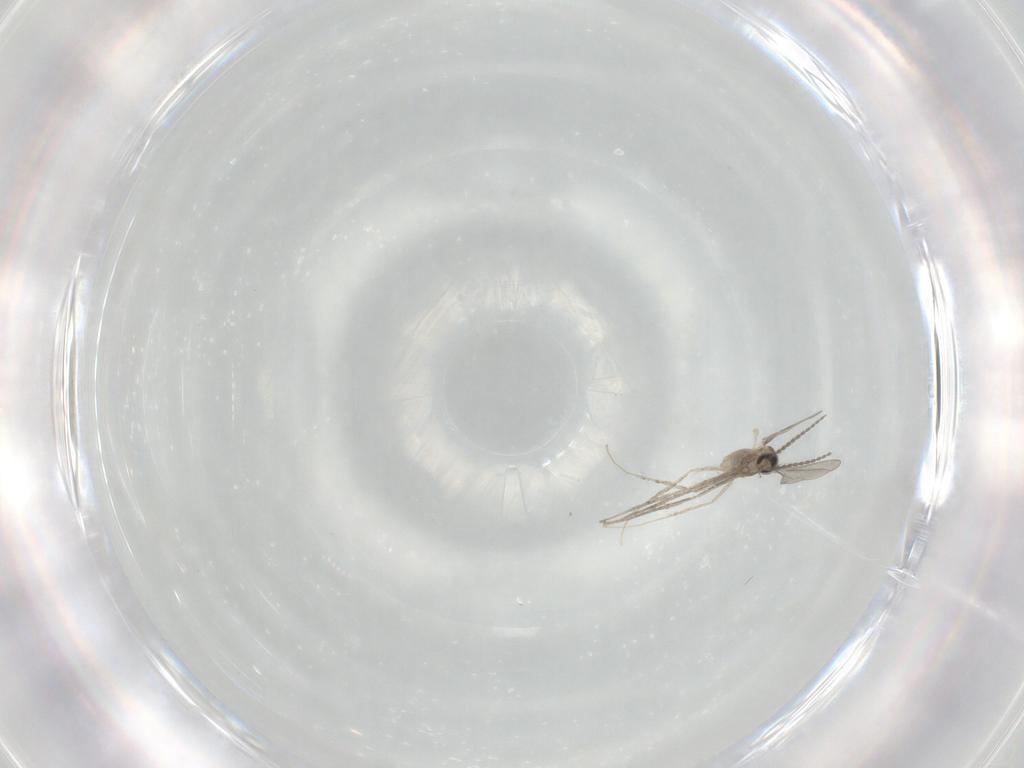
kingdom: Animalia
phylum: Arthropoda
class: Insecta
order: Diptera
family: Cecidomyiidae
